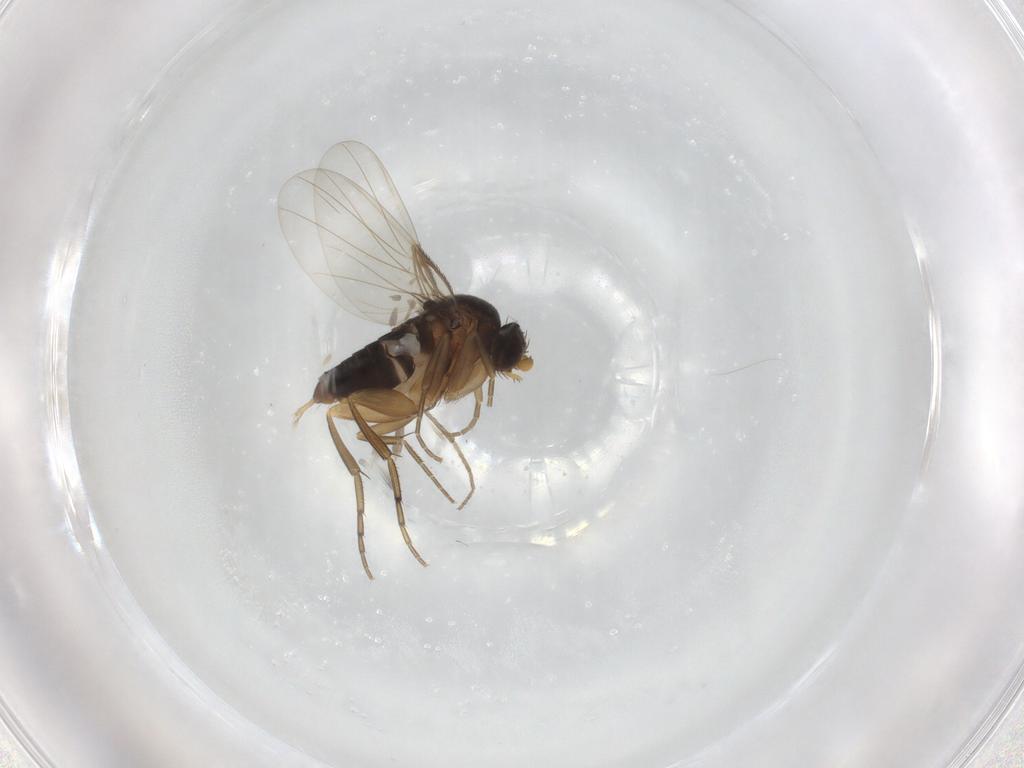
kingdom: Animalia
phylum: Arthropoda
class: Insecta
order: Diptera
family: Phoridae
